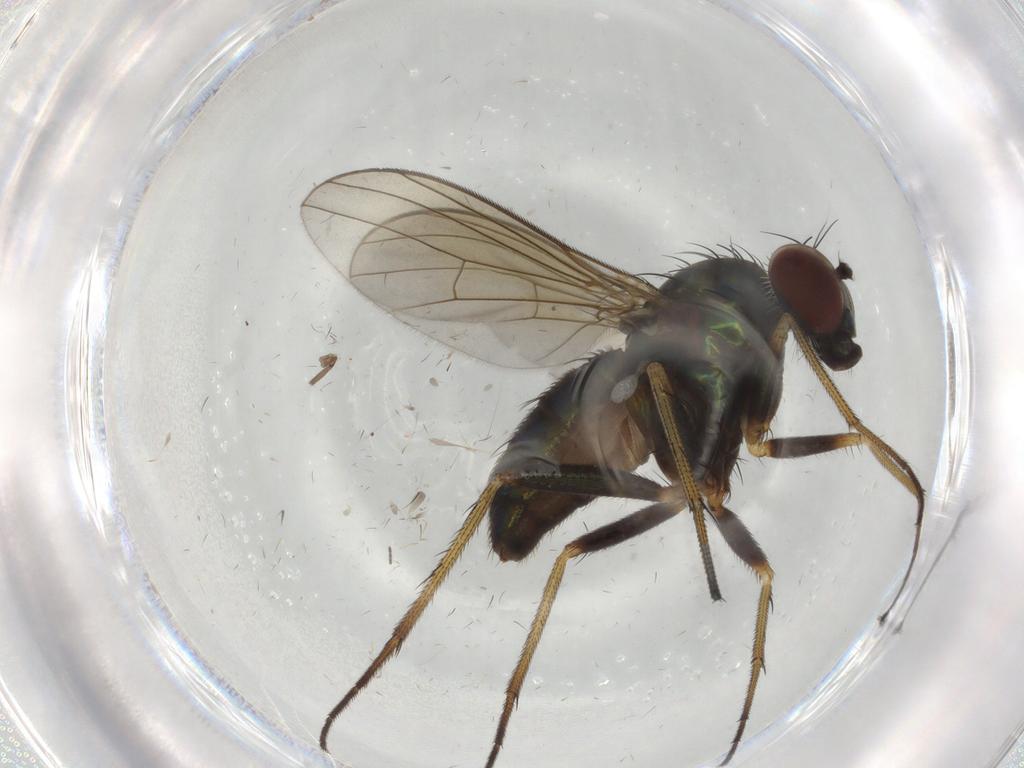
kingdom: Animalia
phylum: Arthropoda
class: Insecta
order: Diptera
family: Dolichopodidae
